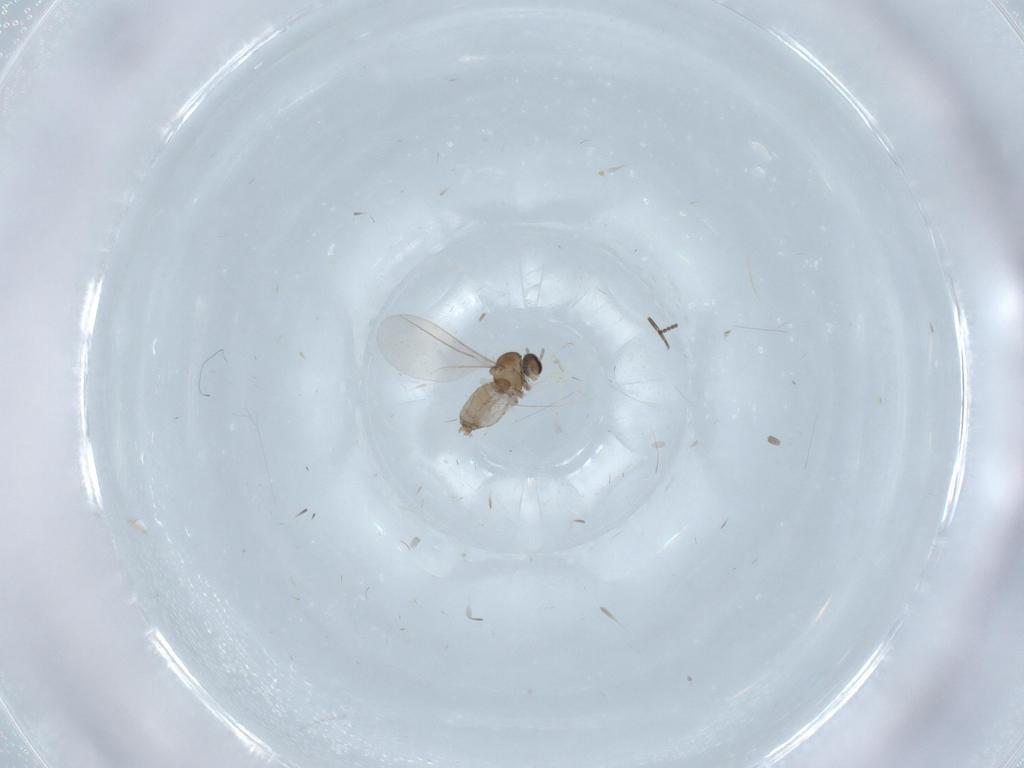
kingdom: Animalia
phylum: Arthropoda
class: Insecta
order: Diptera
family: Cecidomyiidae
